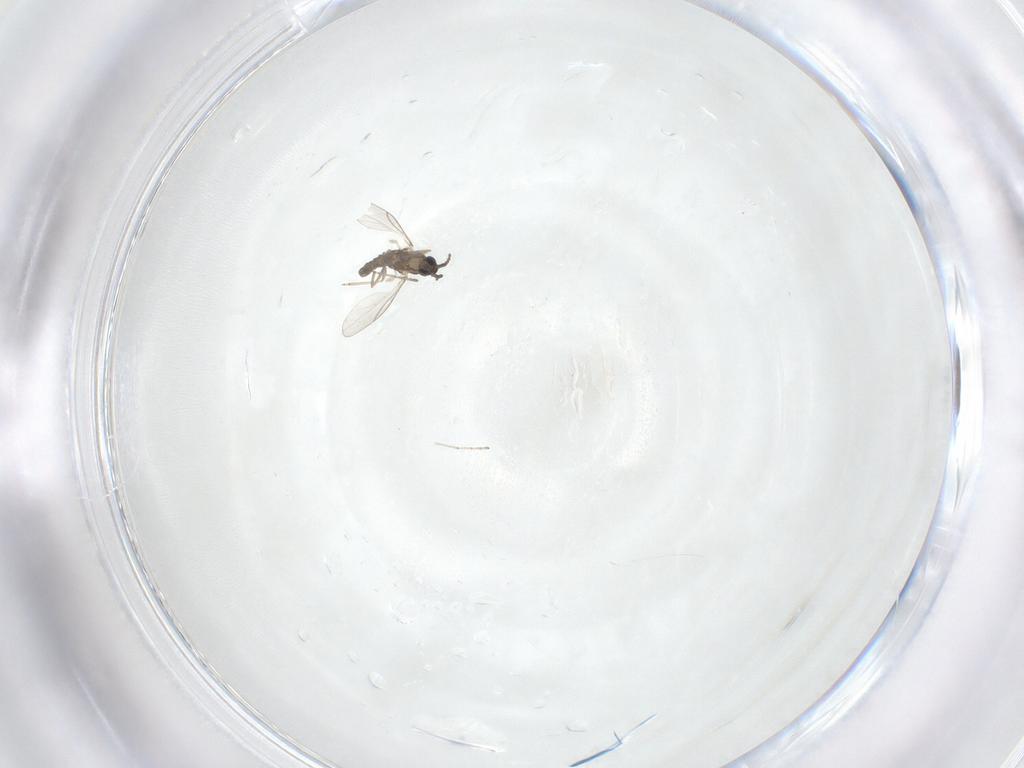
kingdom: Animalia
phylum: Arthropoda
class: Insecta
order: Diptera
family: Cecidomyiidae
